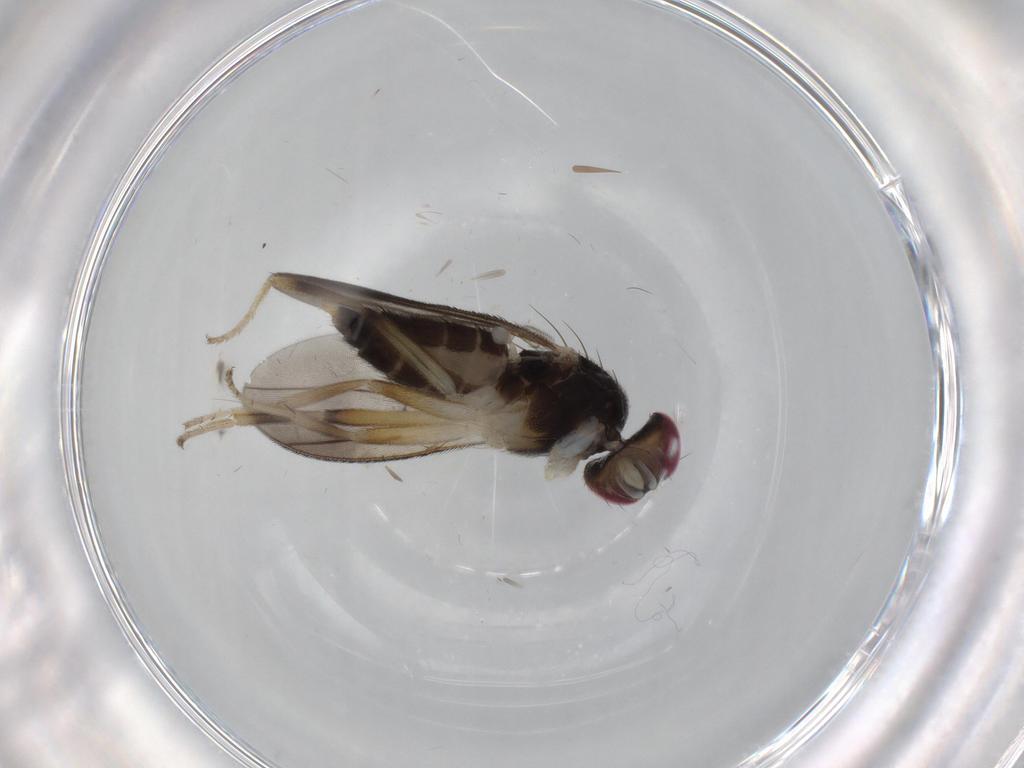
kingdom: Animalia
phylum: Arthropoda
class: Insecta
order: Diptera
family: Clusiidae
